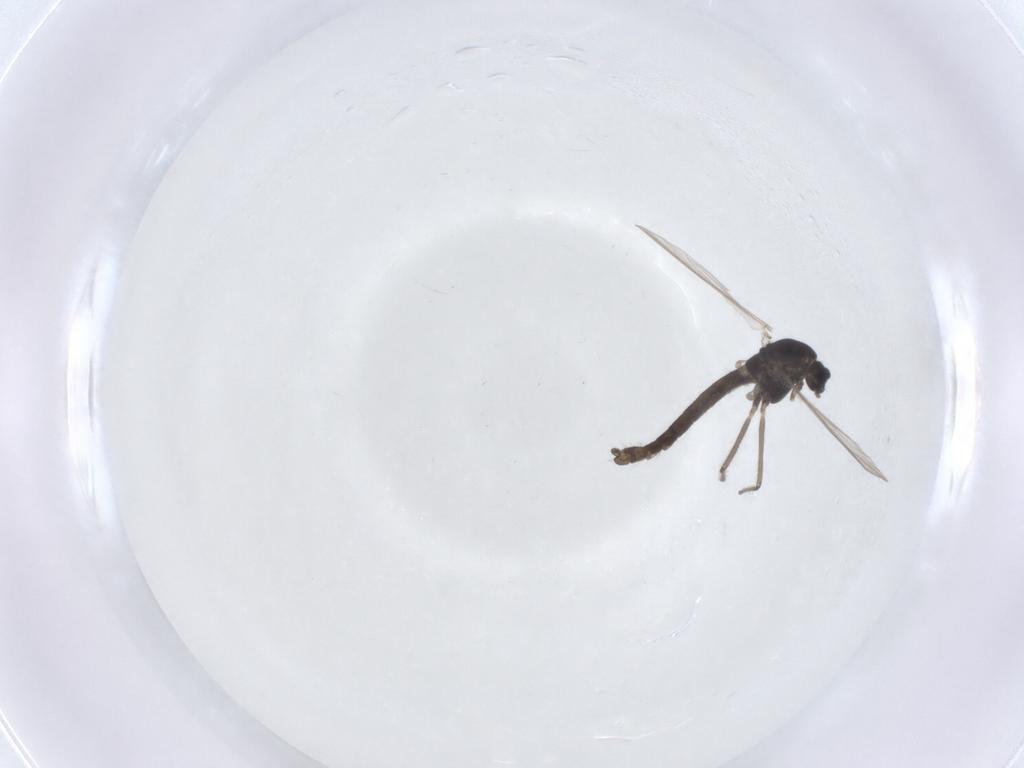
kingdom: Animalia
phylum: Arthropoda
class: Insecta
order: Diptera
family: Chironomidae
